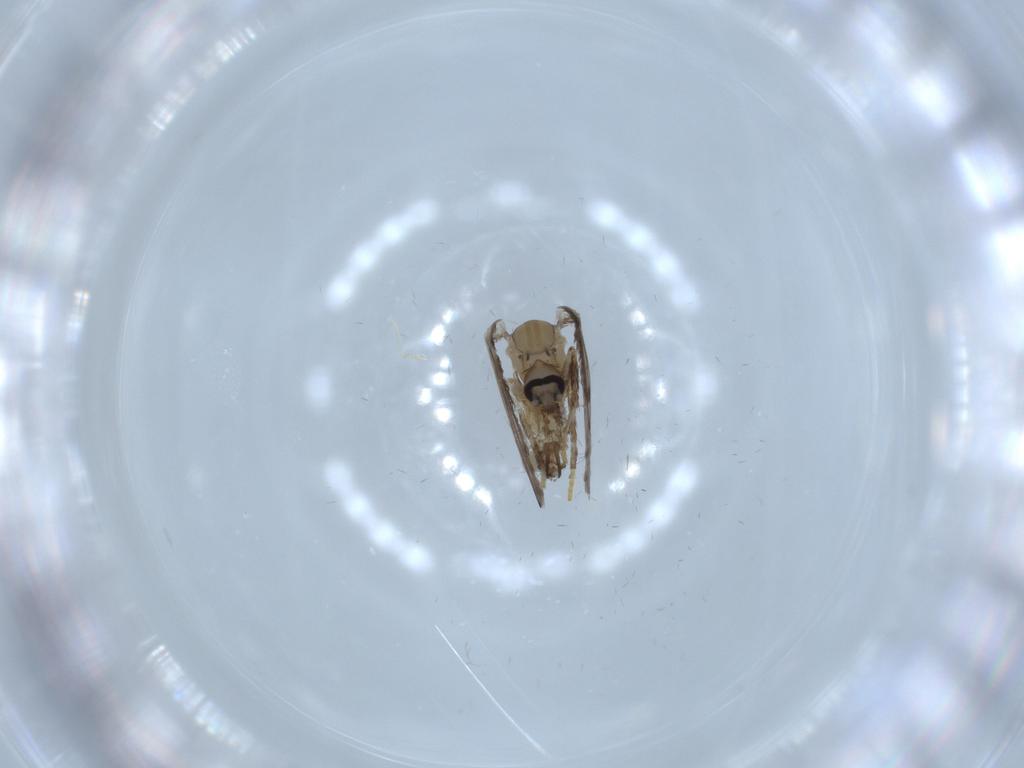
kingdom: Animalia
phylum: Arthropoda
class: Insecta
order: Diptera
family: Psychodidae
